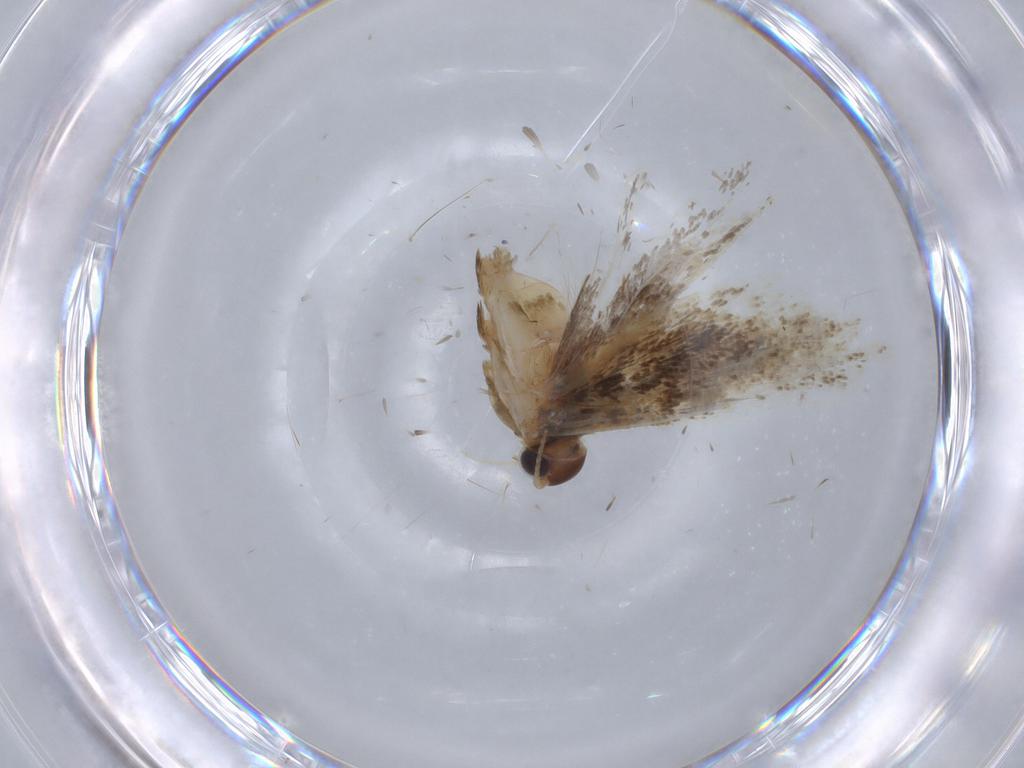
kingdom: Animalia
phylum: Arthropoda
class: Insecta
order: Lepidoptera
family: Gelechiidae
